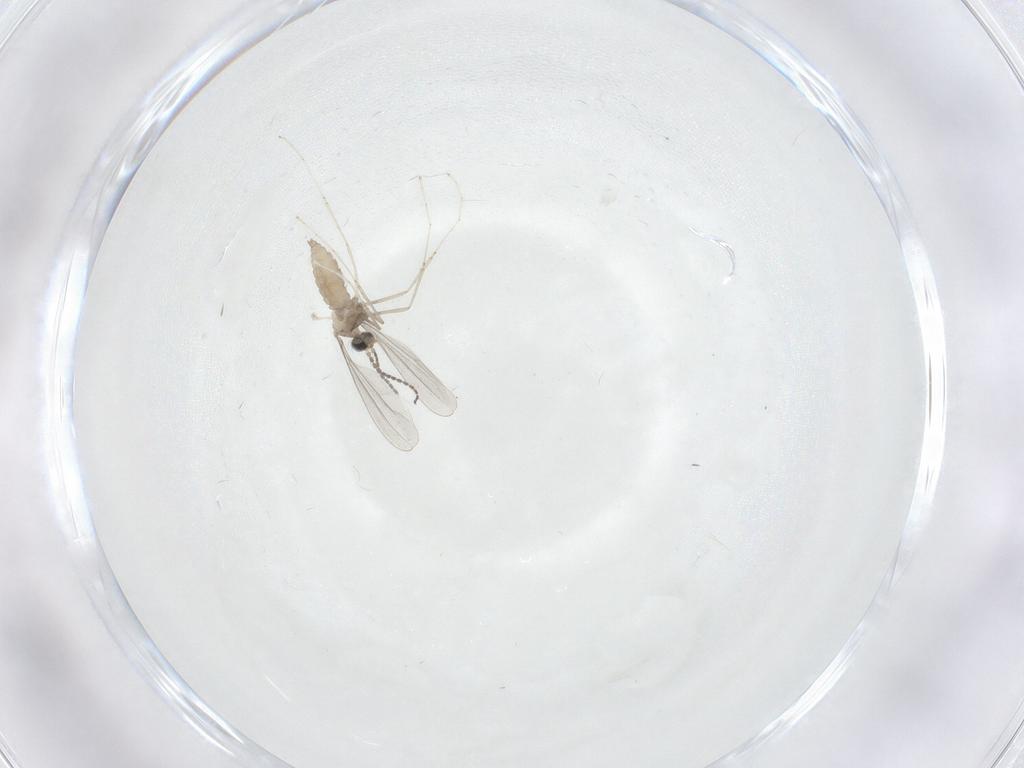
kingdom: Animalia
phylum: Arthropoda
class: Insecta
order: Diptera
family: Cecidomyiidae
